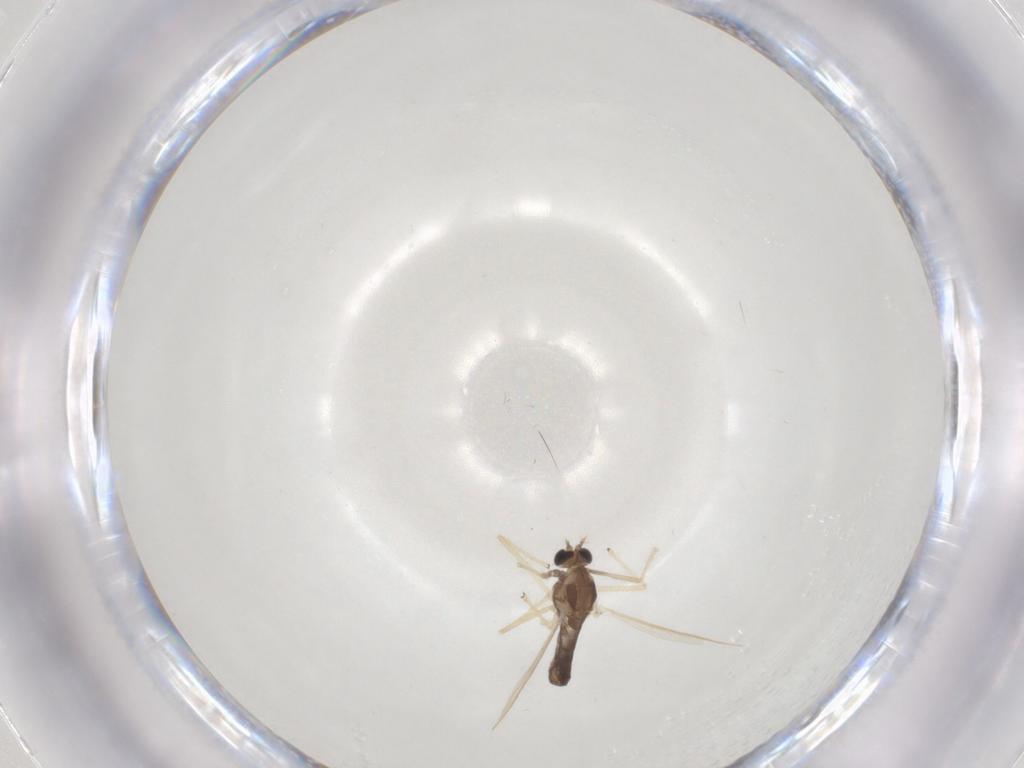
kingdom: Animalia
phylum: Arthropoda
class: Insecta
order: Diptera
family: Chironomidae
